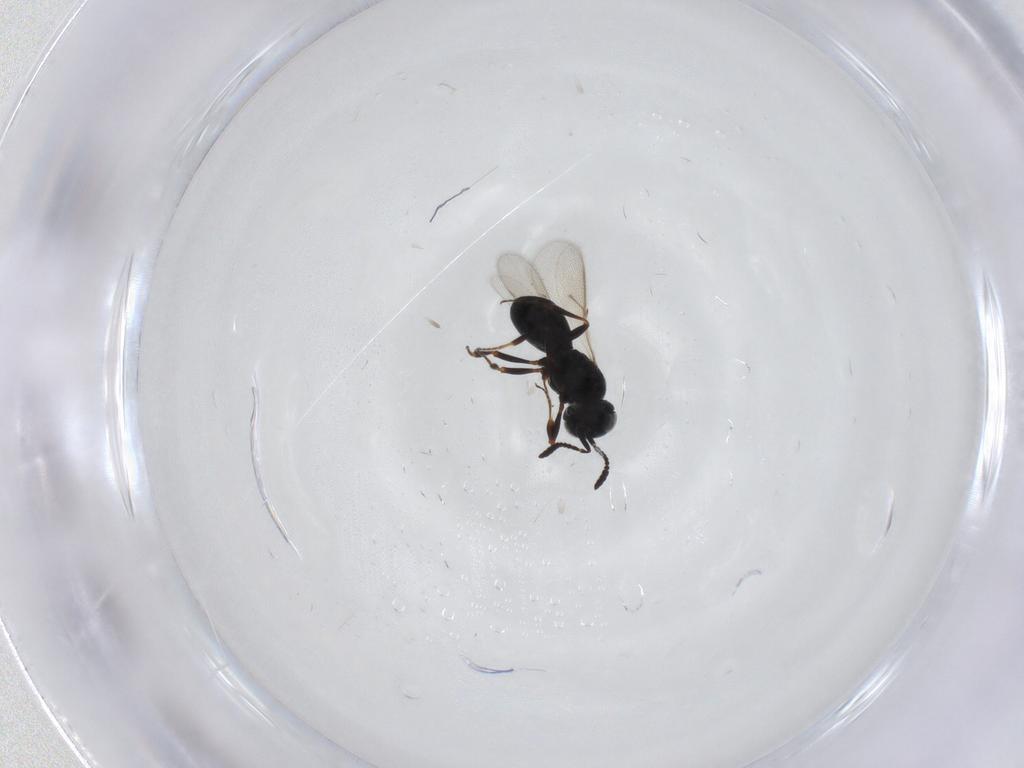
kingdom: Animalia
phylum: Arthropoda
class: Insecta
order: Hymenoptera
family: Scelionidae
